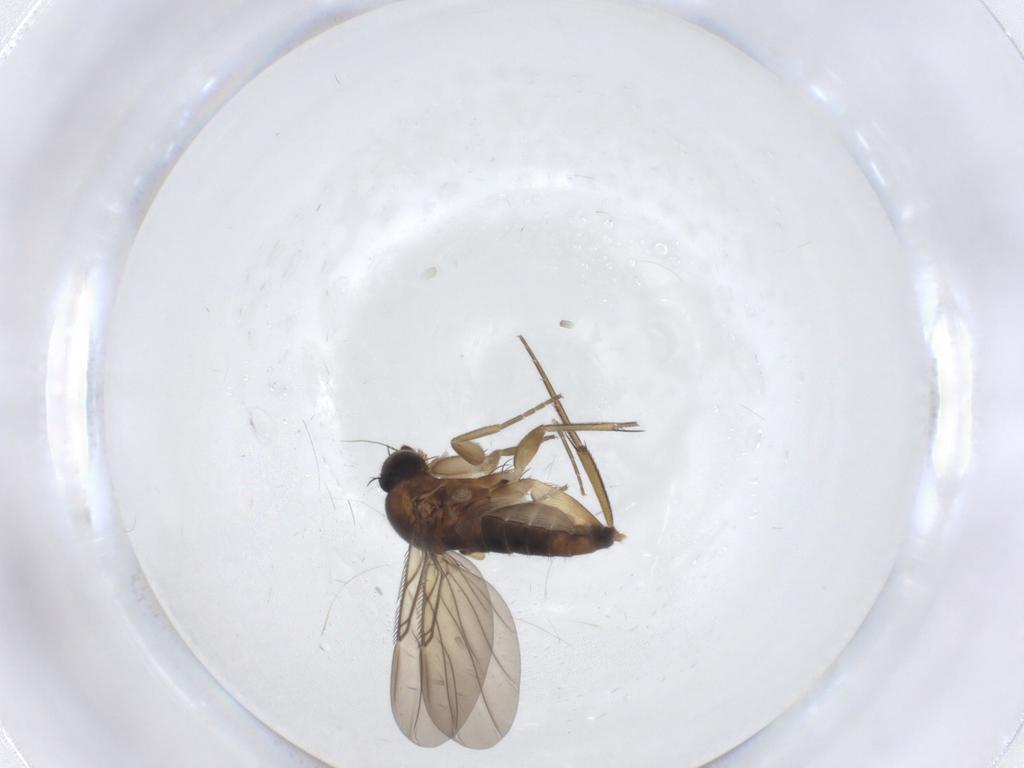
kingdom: Animalia
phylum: Arthropoda
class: Insecta
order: Diptera
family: Phoridae
